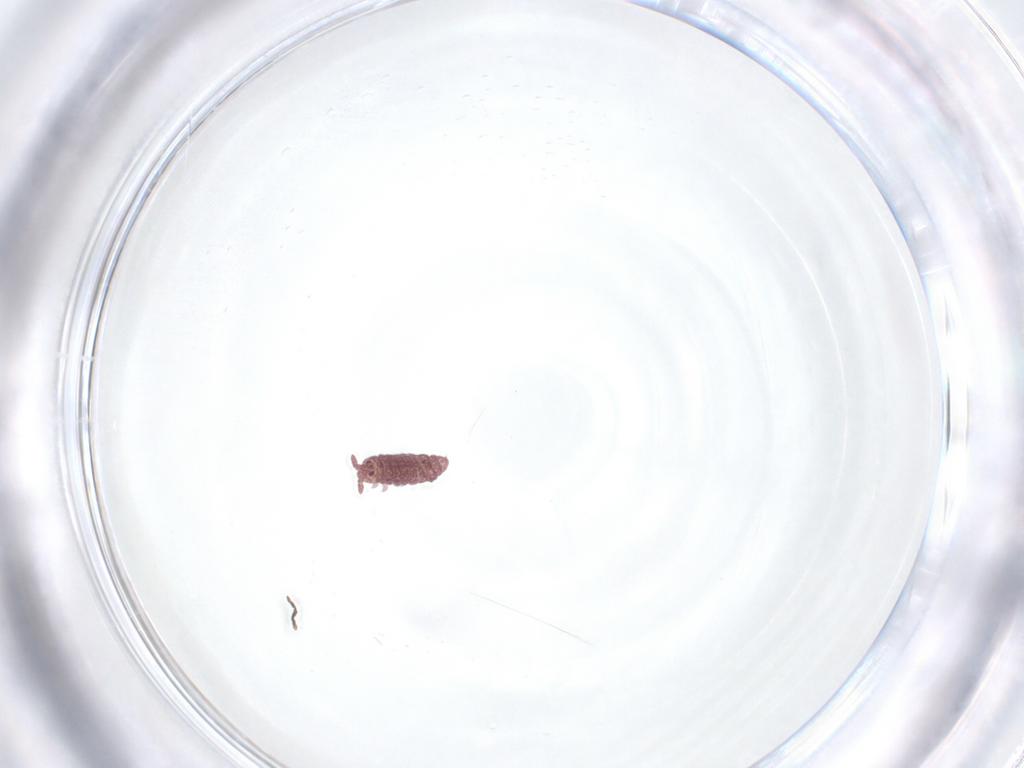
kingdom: Animalia
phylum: Arthropoda
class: Collembola
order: Poduromorpha
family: Hypogastruridae
